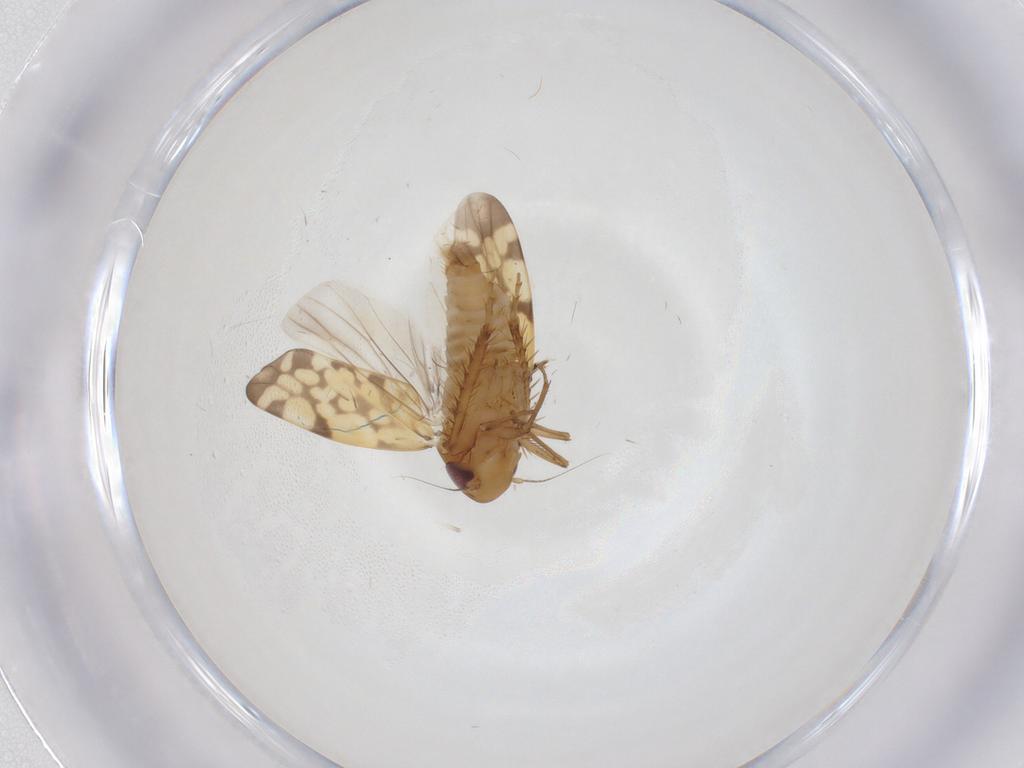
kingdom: Animalia
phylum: Arthropoda
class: Insecta
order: Hemiptera
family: Cicadellidae
